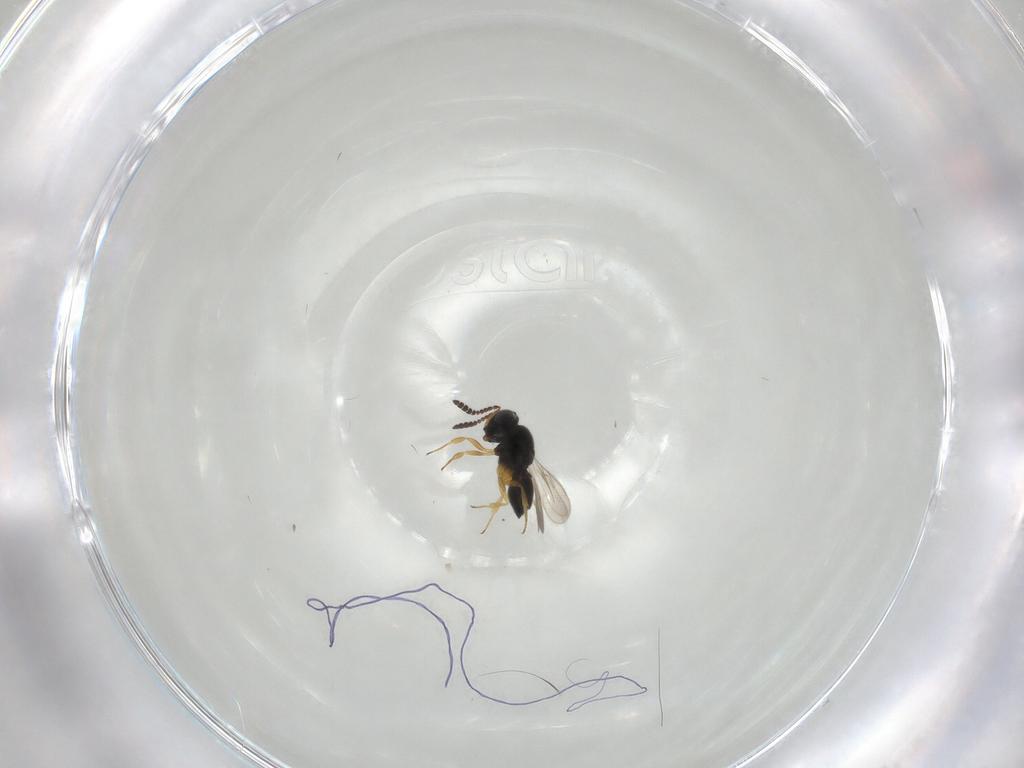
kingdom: Animalia
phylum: Arthropoda
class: Insecta
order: Hymenoptera
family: Scelionidae
